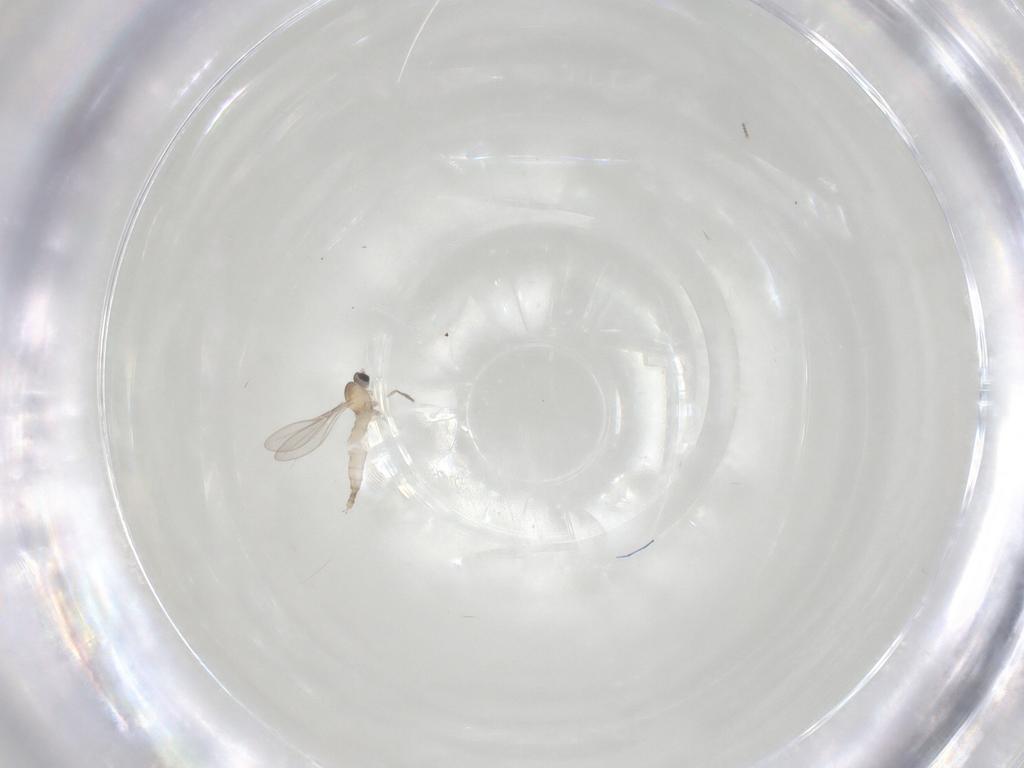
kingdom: Animalia
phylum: Arthropoda
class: Insecta
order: Diptera
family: Cecidomyiidae
